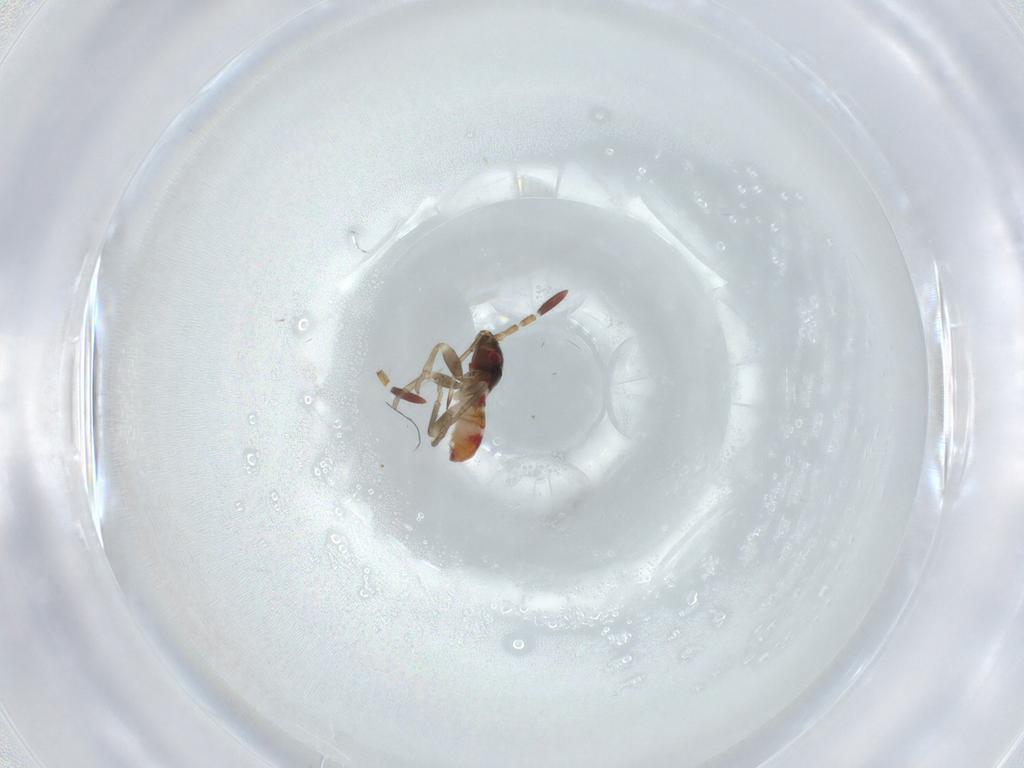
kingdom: Animalia
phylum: Arthropoda
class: Insecta
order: Hemiptera
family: Rhyparochromidae
